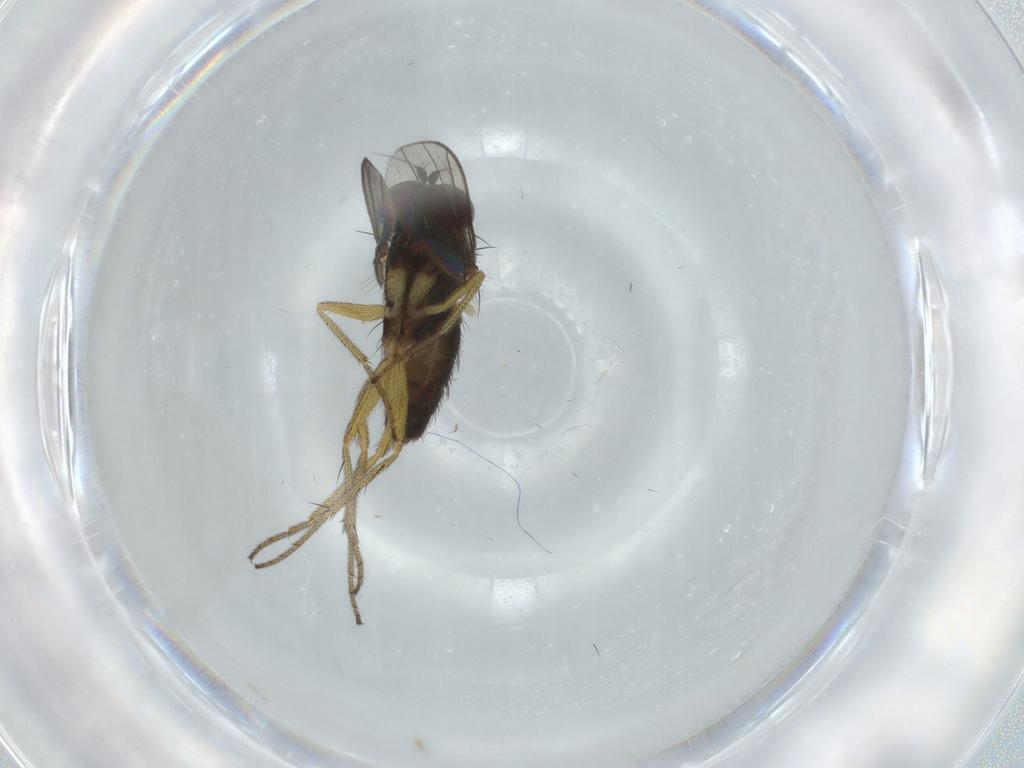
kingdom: Animalia
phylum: Arthropoda
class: Insecta
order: Diptera
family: Dolichopodidae
